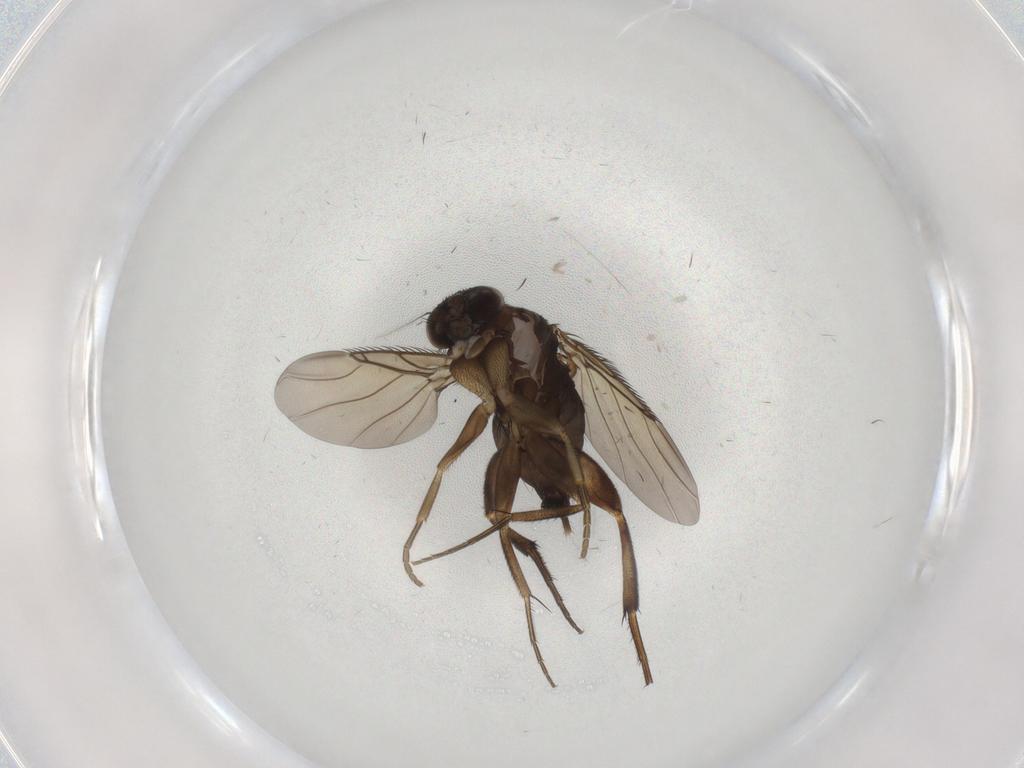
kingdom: Animalia
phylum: Arthropoda
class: Insecta
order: Diptera
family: Phoridae
